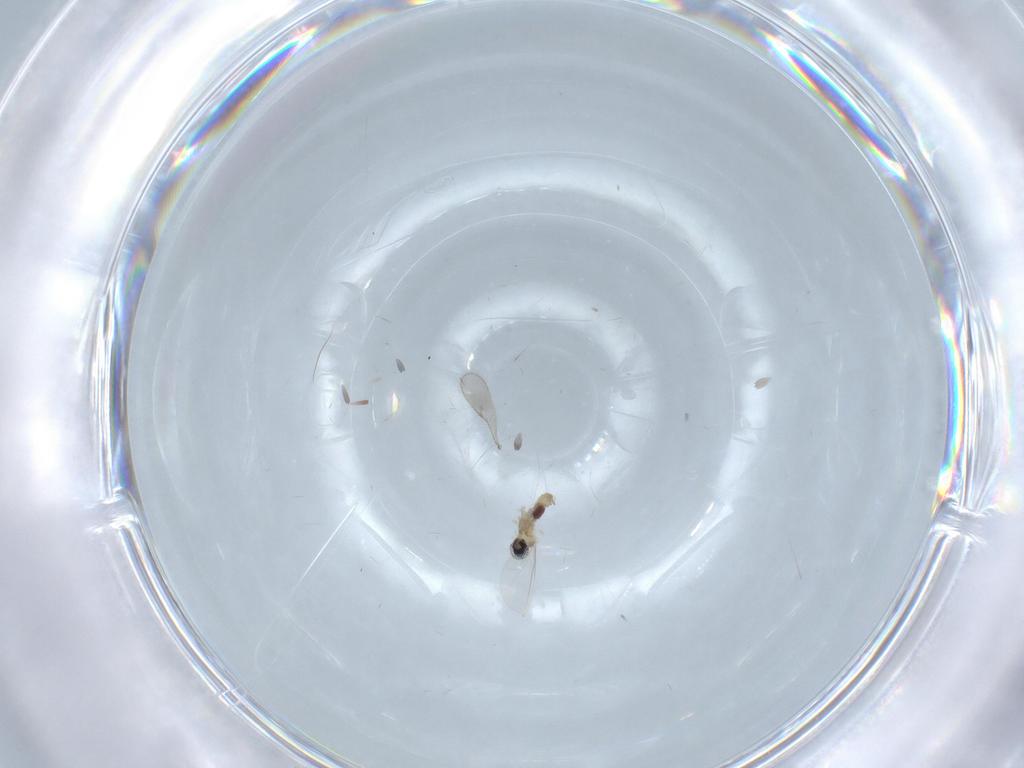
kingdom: Animalia
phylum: Arthropoda
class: Insecta
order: Diptera
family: Cecidomyiidae
